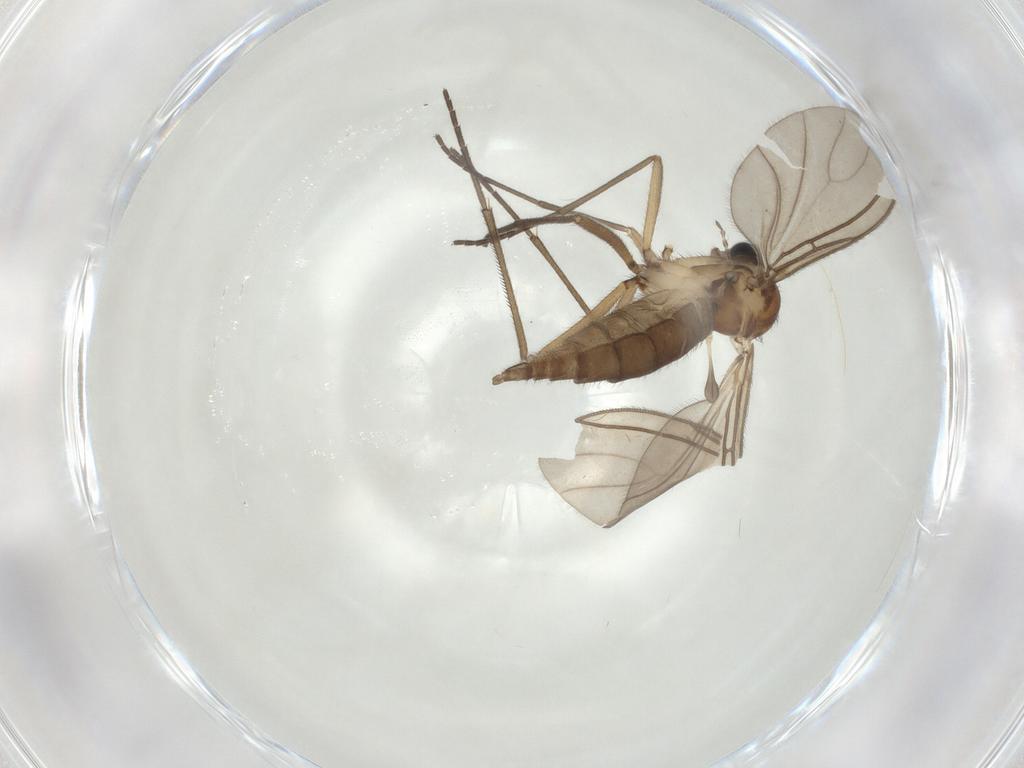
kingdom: Animalia
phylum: Arthropoda
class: Insecta
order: Diptera
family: Sciaridae
